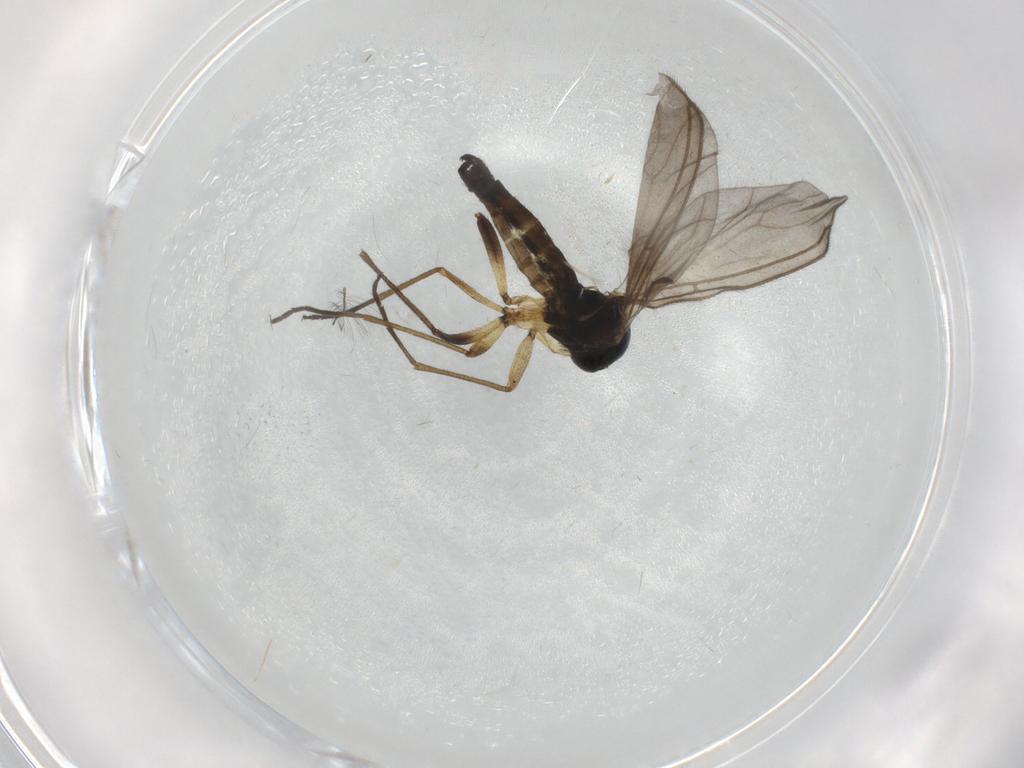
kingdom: Animalia
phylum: Arthropoda
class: Insecta
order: Diptera
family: Sciaridae
